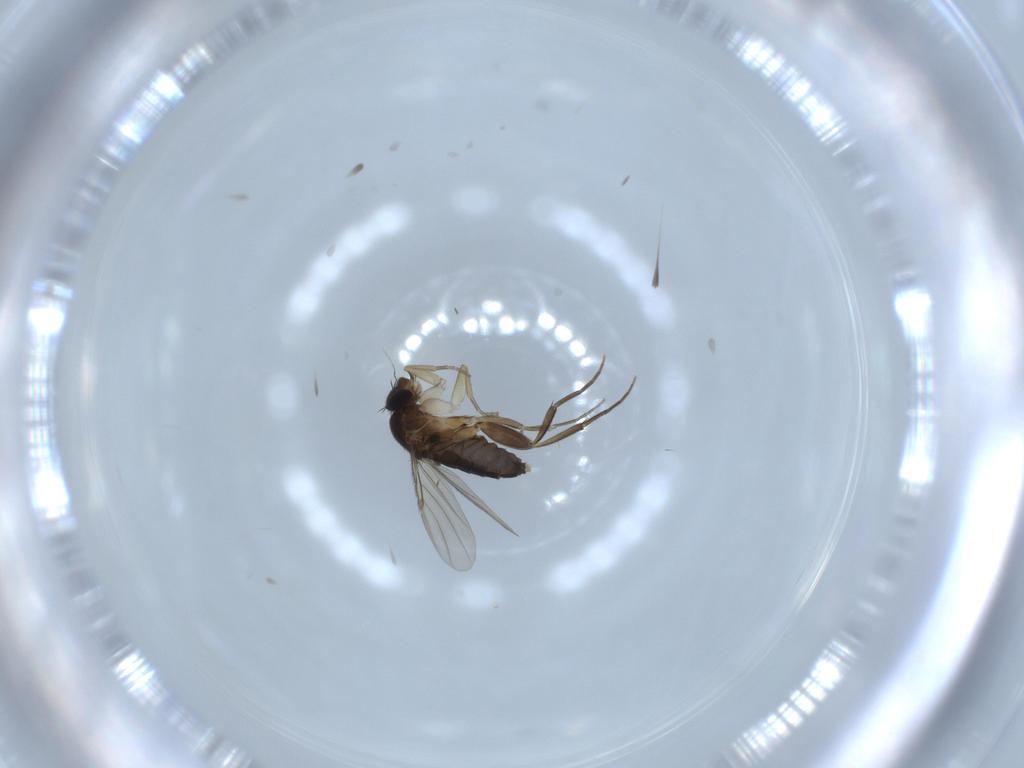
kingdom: Animalia
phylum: Arthropoda
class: Insecta
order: Diptera
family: Phoridae
